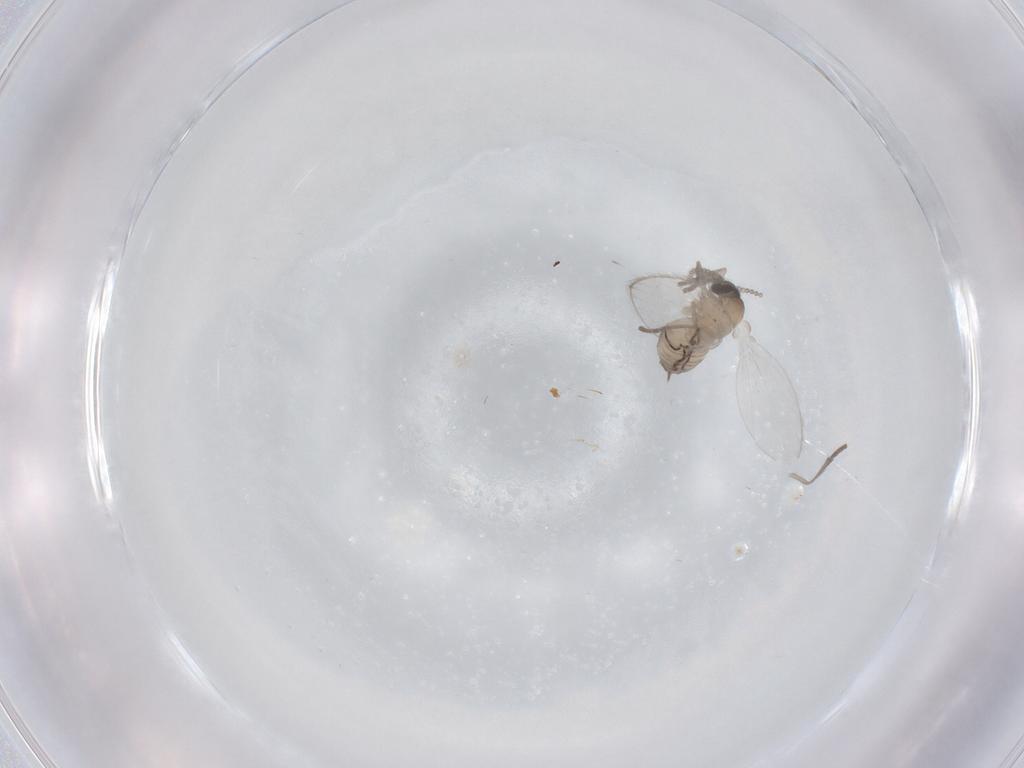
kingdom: Animalia
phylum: Arthropoda
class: Insecta
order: Diptera
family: Psychodidae
